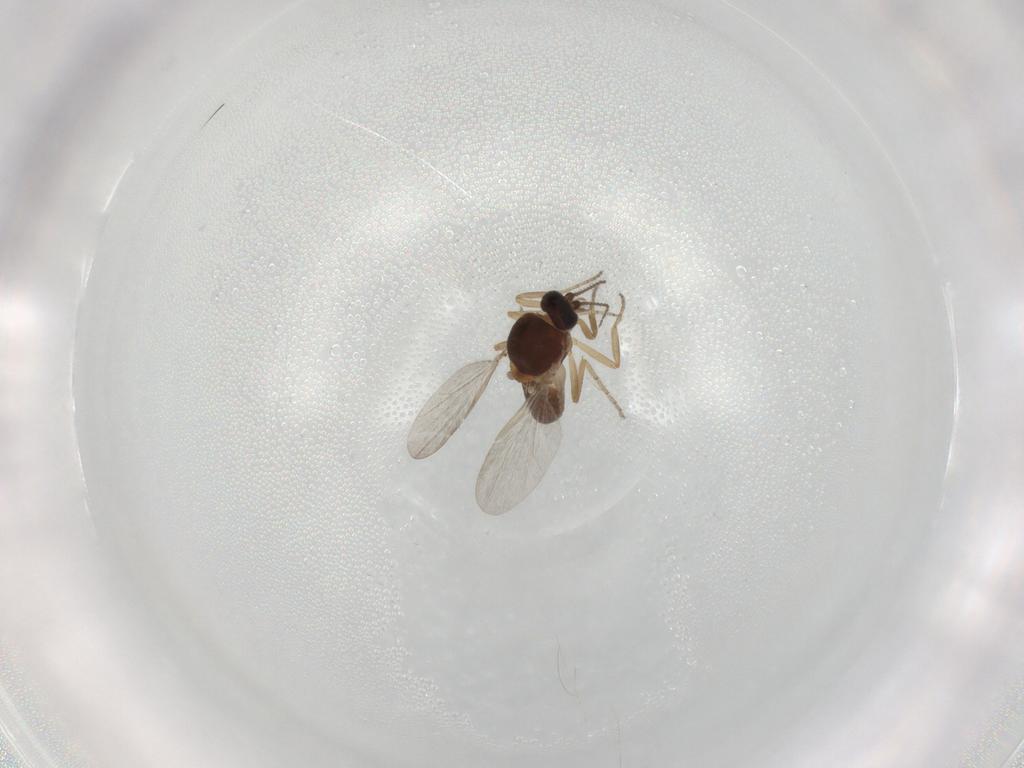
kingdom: Animalia
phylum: Arthropoda
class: Insecta
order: Diptera
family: Ceratopogonidae
